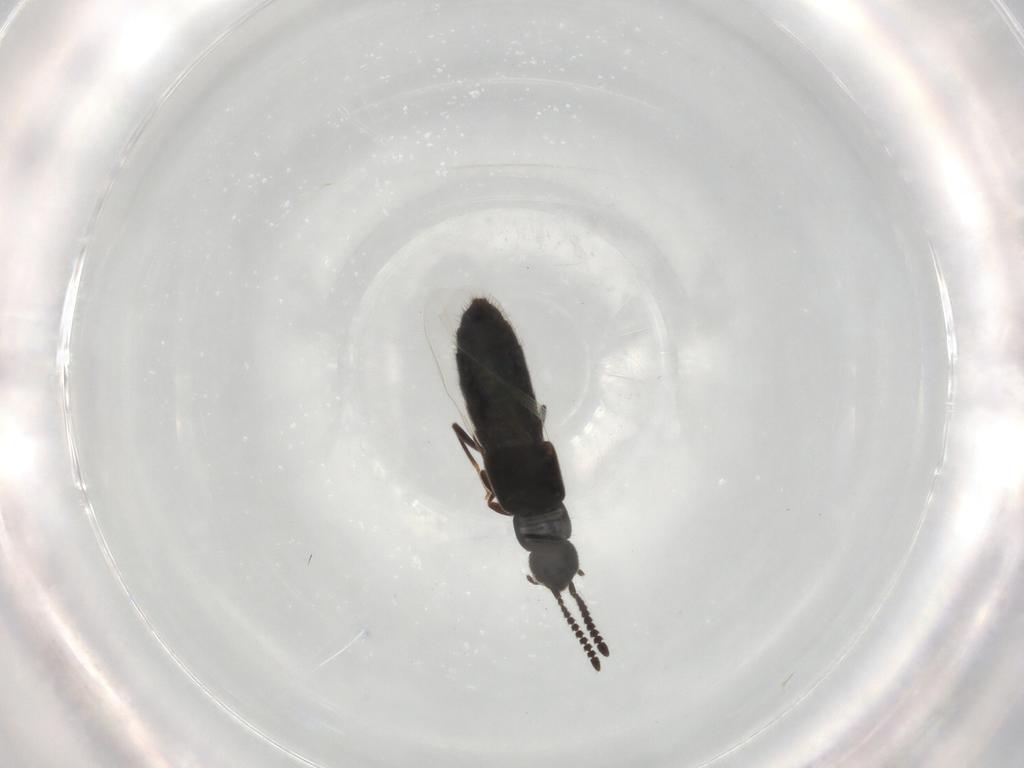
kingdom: Animalia
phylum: Arthropoda
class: Insecta
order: Coleoptera
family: Staphylinidae
